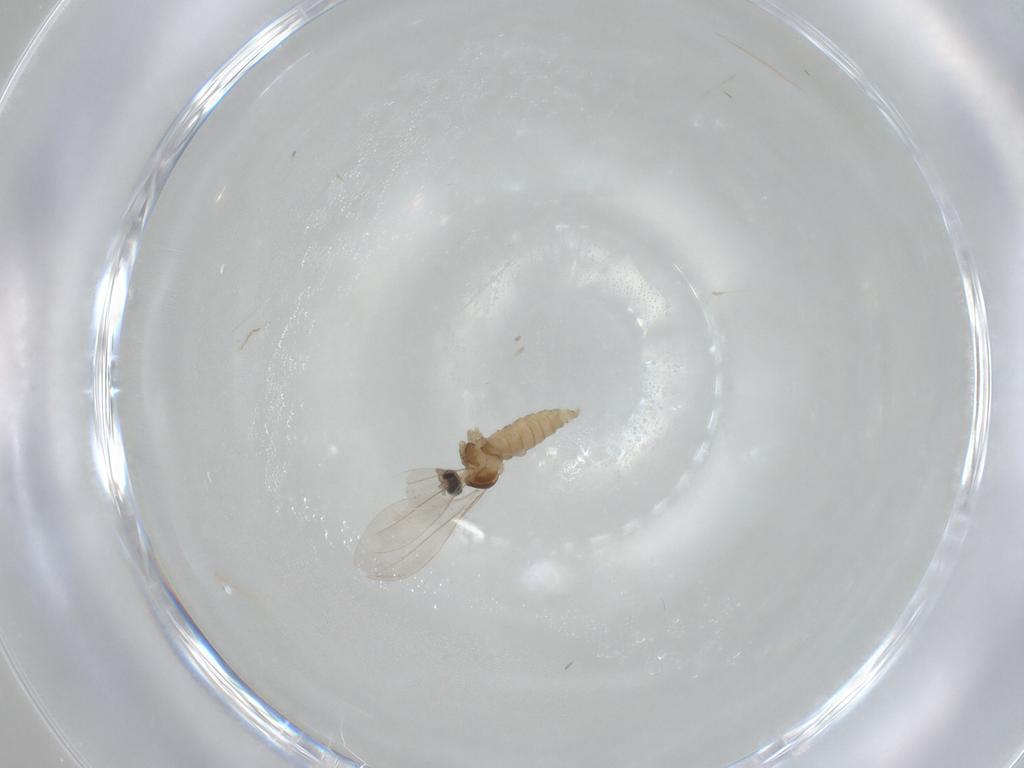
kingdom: Animalia
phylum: Arthropoda
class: Insecta
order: Diptera
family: Cecidomyiidae
